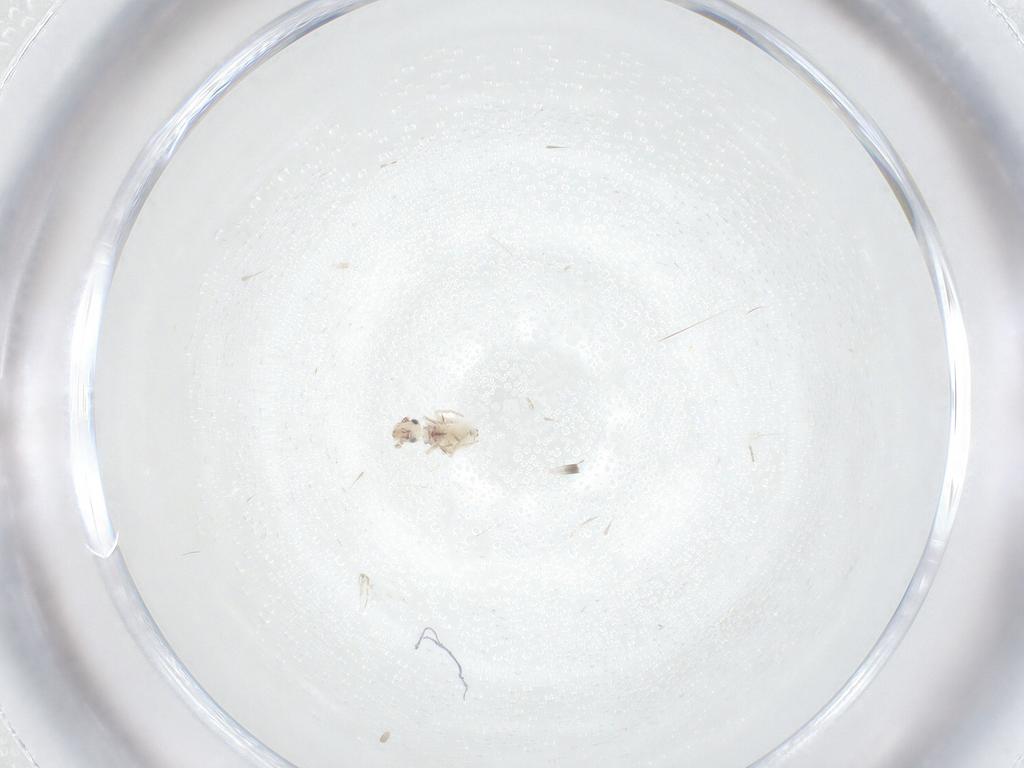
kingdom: Animalia
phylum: Arthropoda
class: Insecta
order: Psocodea
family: Lepidopsocidae
